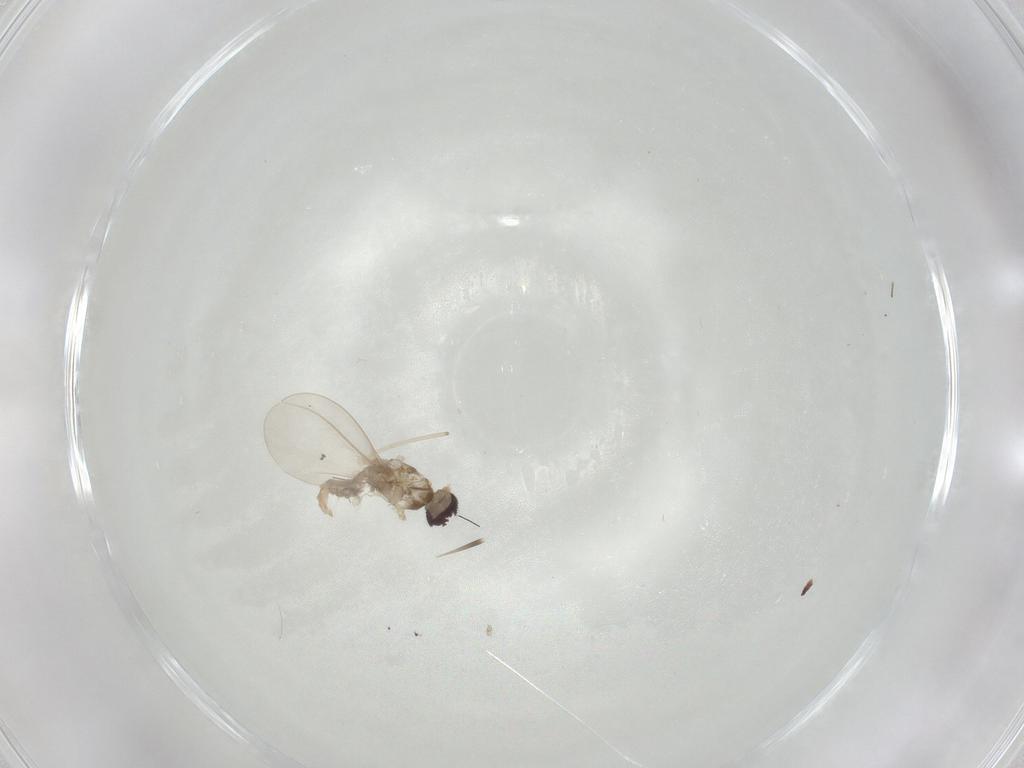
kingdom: Animalia
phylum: Arthropoda
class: Insecta
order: Diptera
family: Cecidomyiidae
